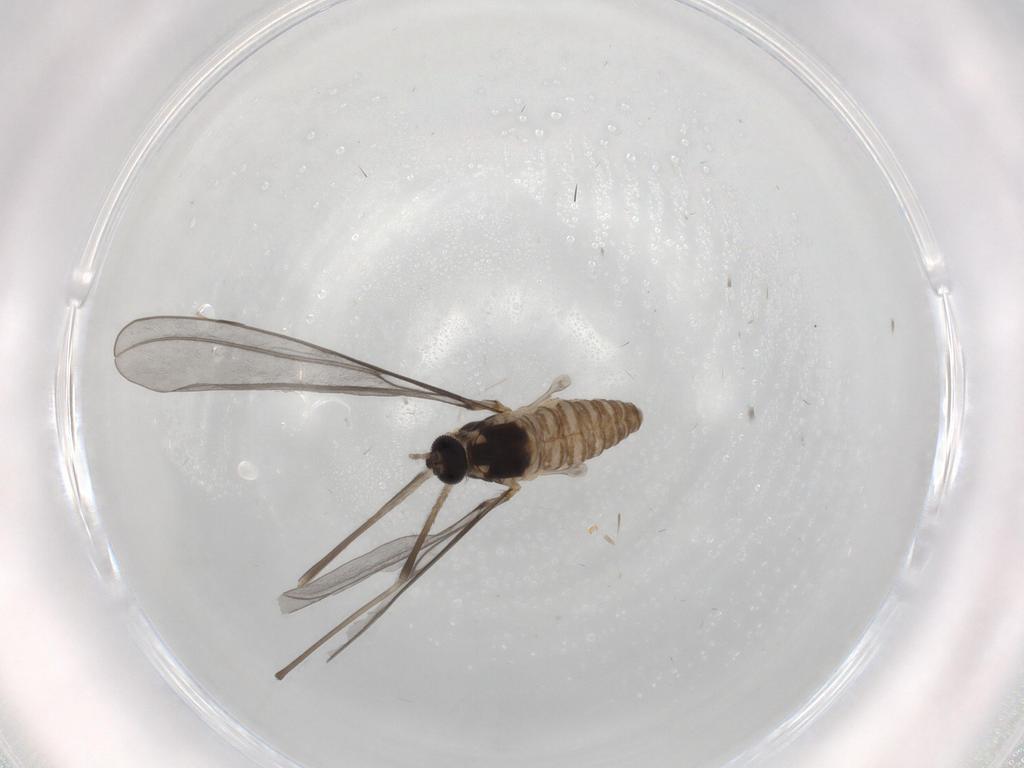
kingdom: Animalia
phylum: Arthropoda
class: Insecta
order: Diptera
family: Cecidomyiidae
